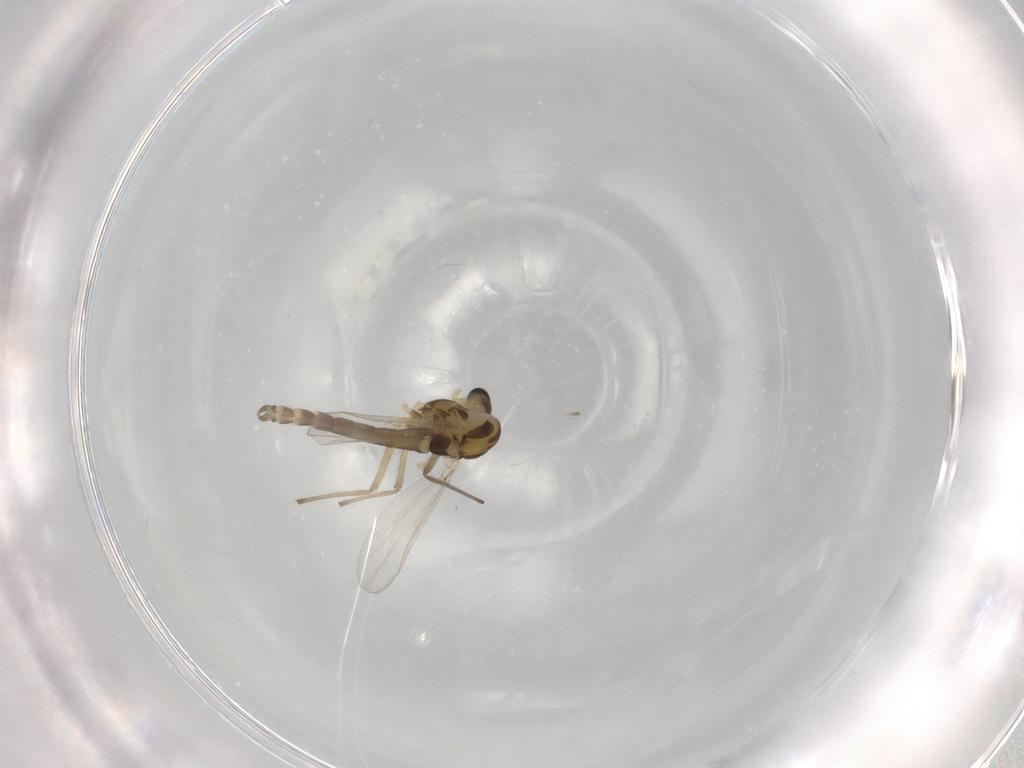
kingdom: Animalia
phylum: Arthropoda
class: Insecta
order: Diptera
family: Chironomidae
